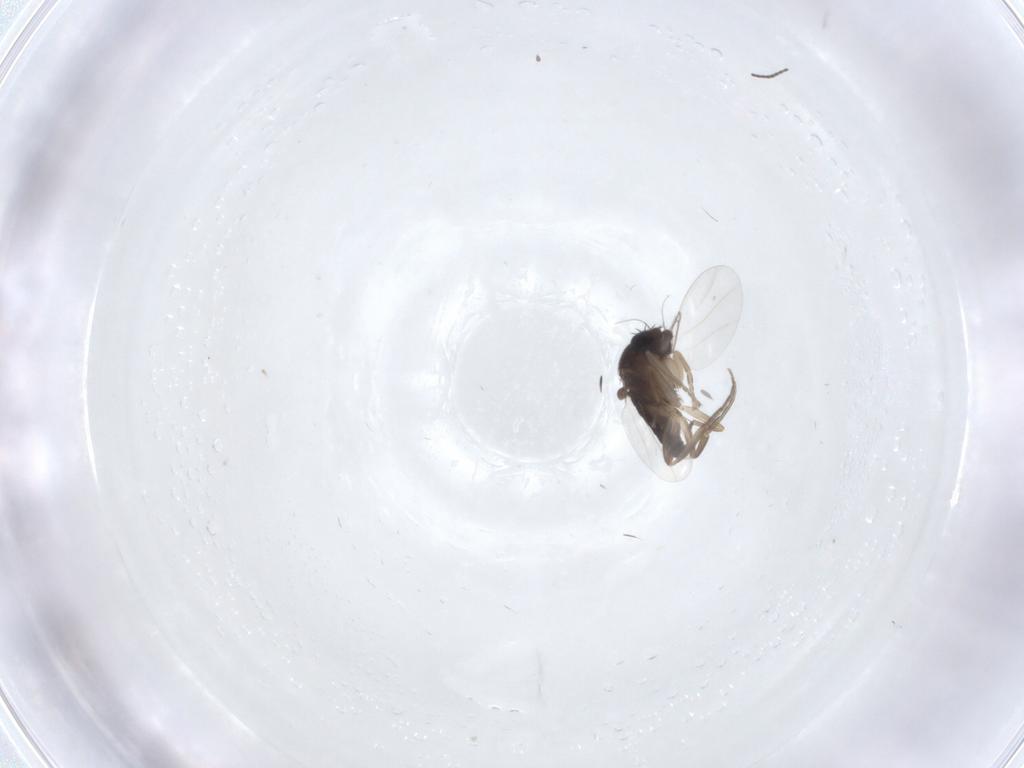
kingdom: Animalia
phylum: Arthropoda
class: Insecta
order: Diptera
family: Phoridae
